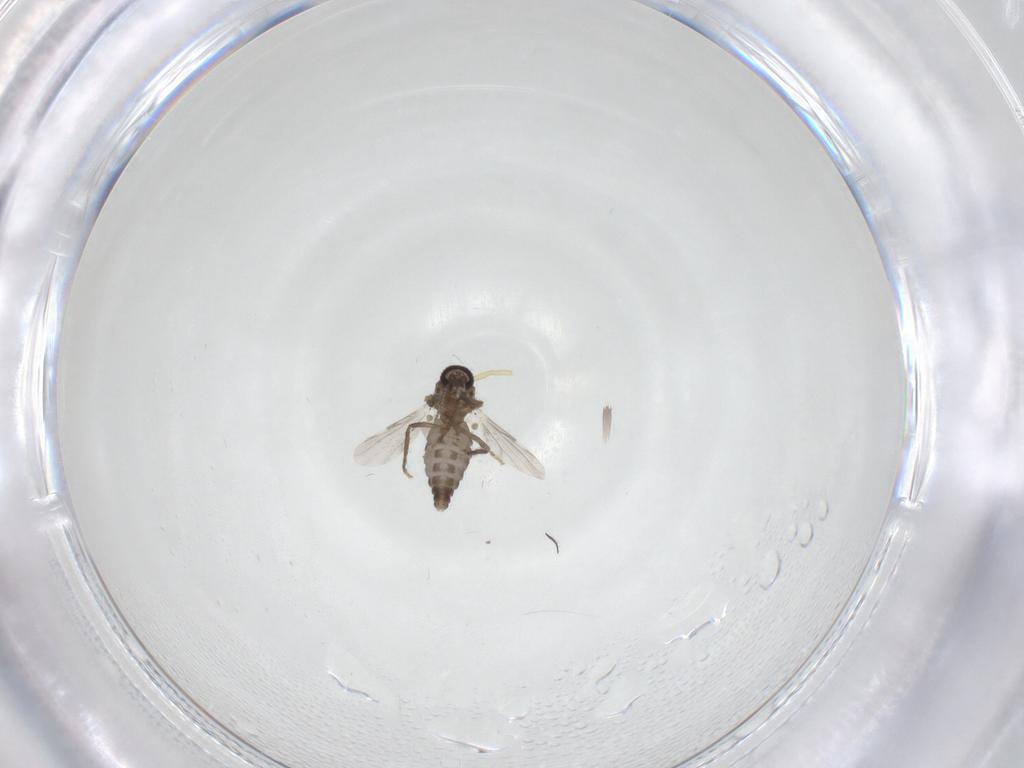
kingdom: Animalia
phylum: Arthropoda
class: Insecta
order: Diptera
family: Ceratopogonidae
